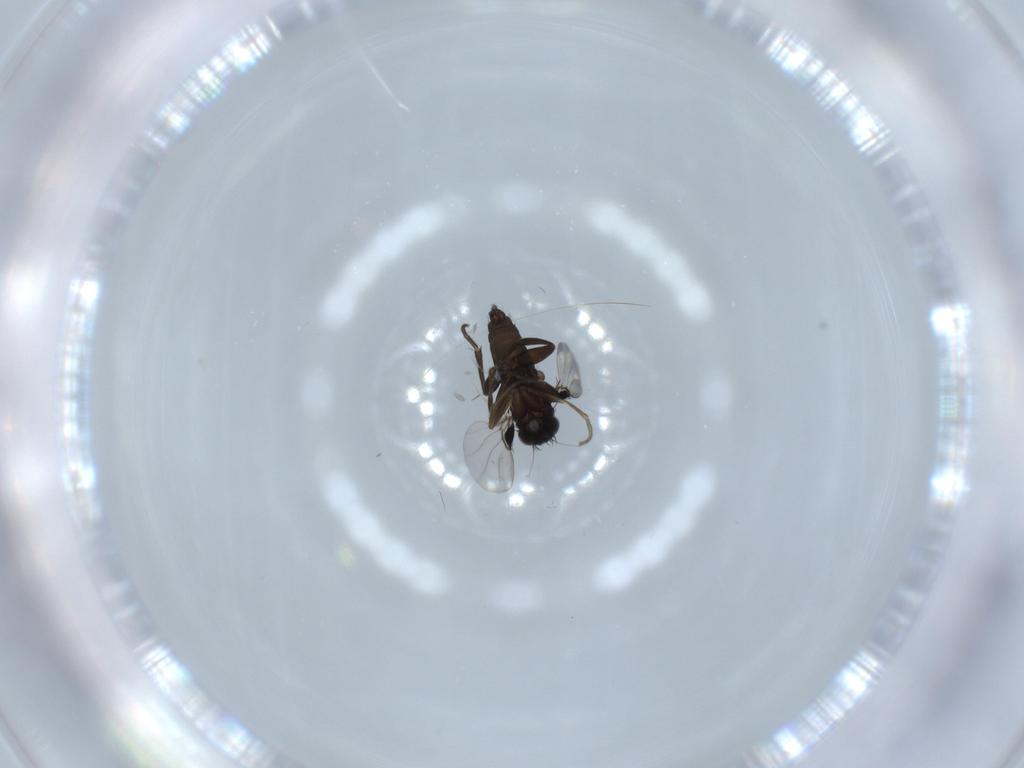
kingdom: Animalia
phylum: Arthropoda
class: Insecta
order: Diptera
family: Phoridae
